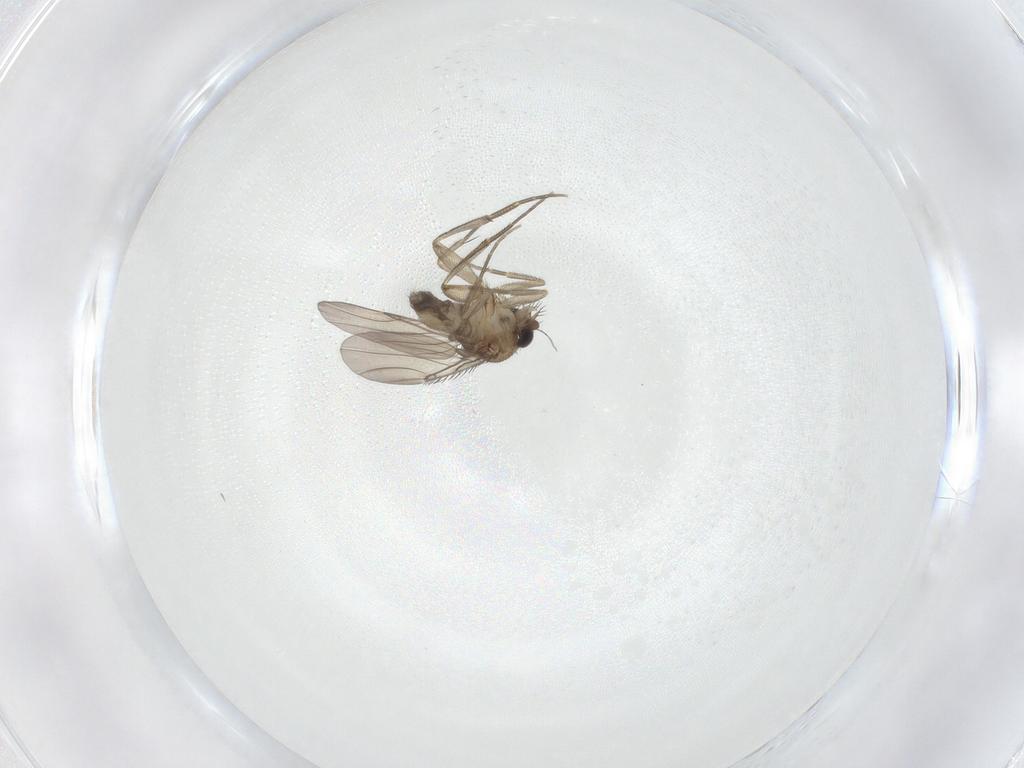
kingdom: Animalia
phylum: Arthropoda
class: Insecta
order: Diptera
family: Phoridae
